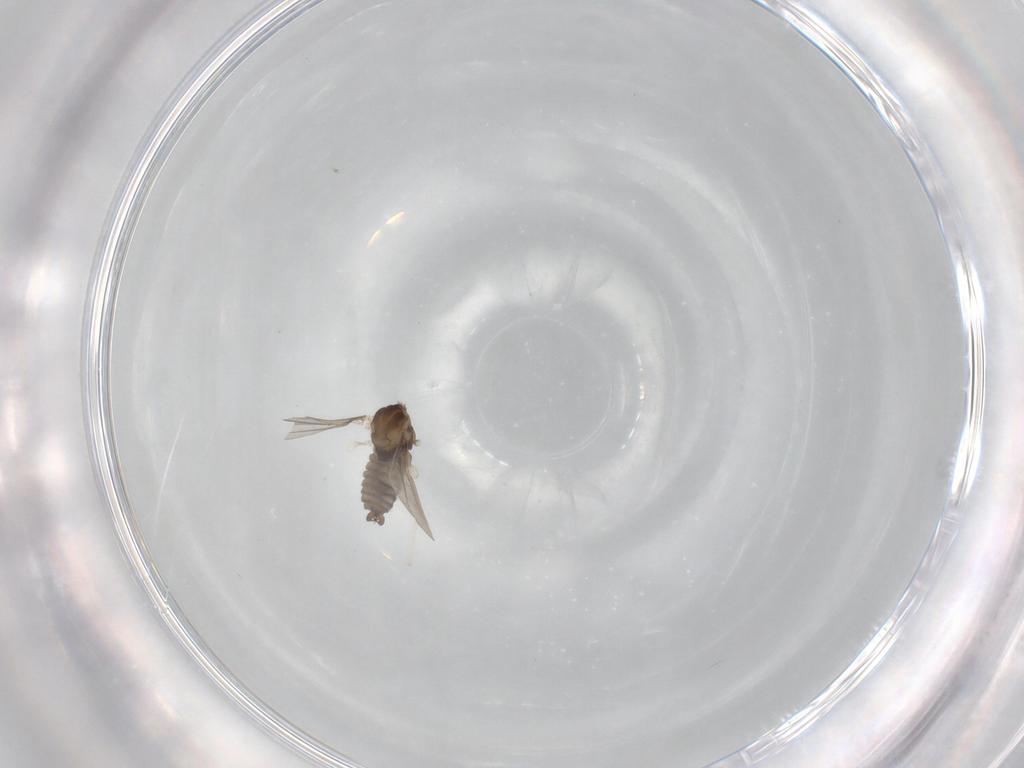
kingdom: Animalia
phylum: Arthropoda
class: Insecta
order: Diptera
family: Cecidomyiidae
